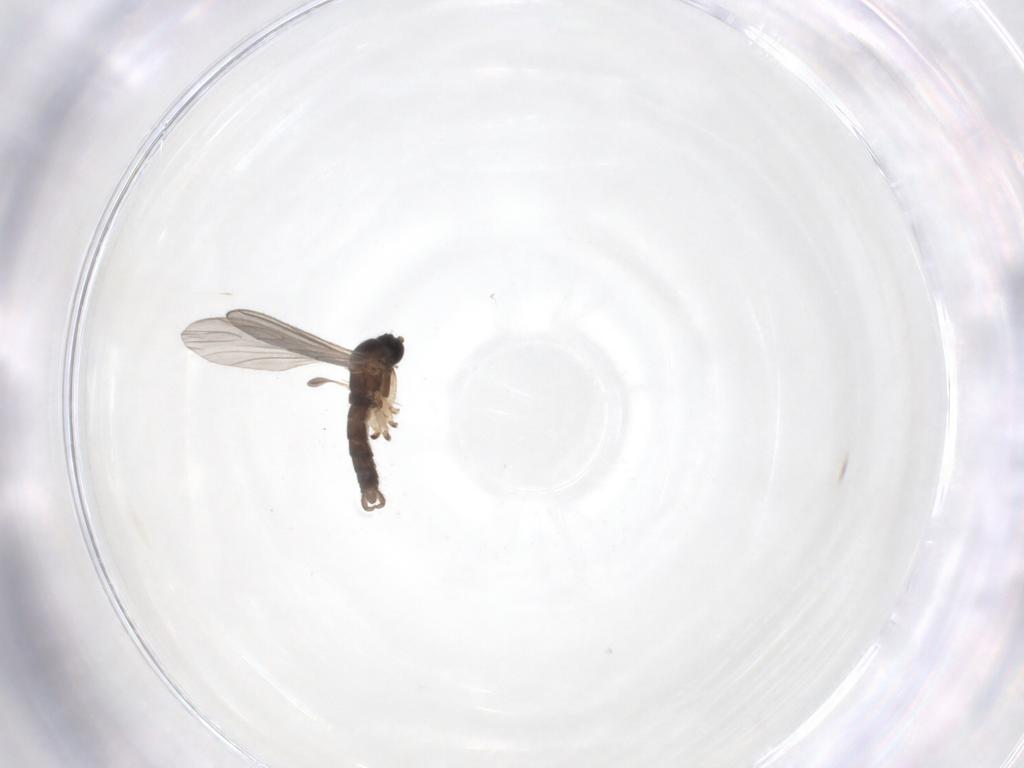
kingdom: Animalia
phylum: Arthropoda
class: Insecta
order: Diptera
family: Sciaridae
